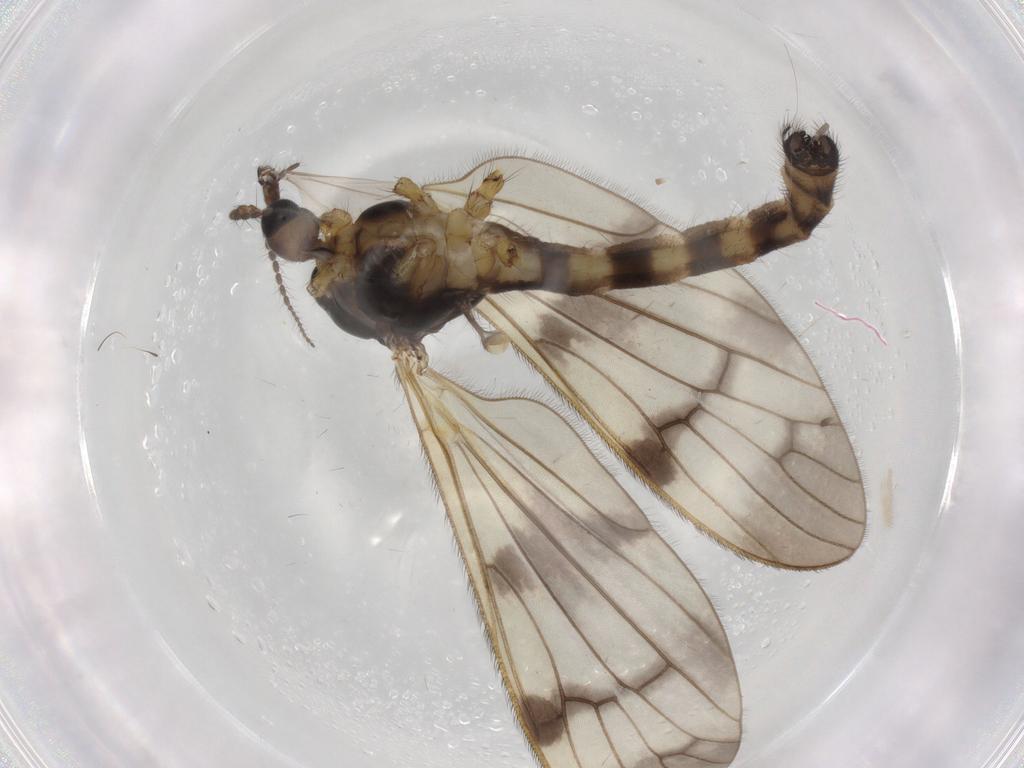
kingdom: Animalia
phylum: Arthropoda
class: Insecta
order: Diptera
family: Limoniidae
